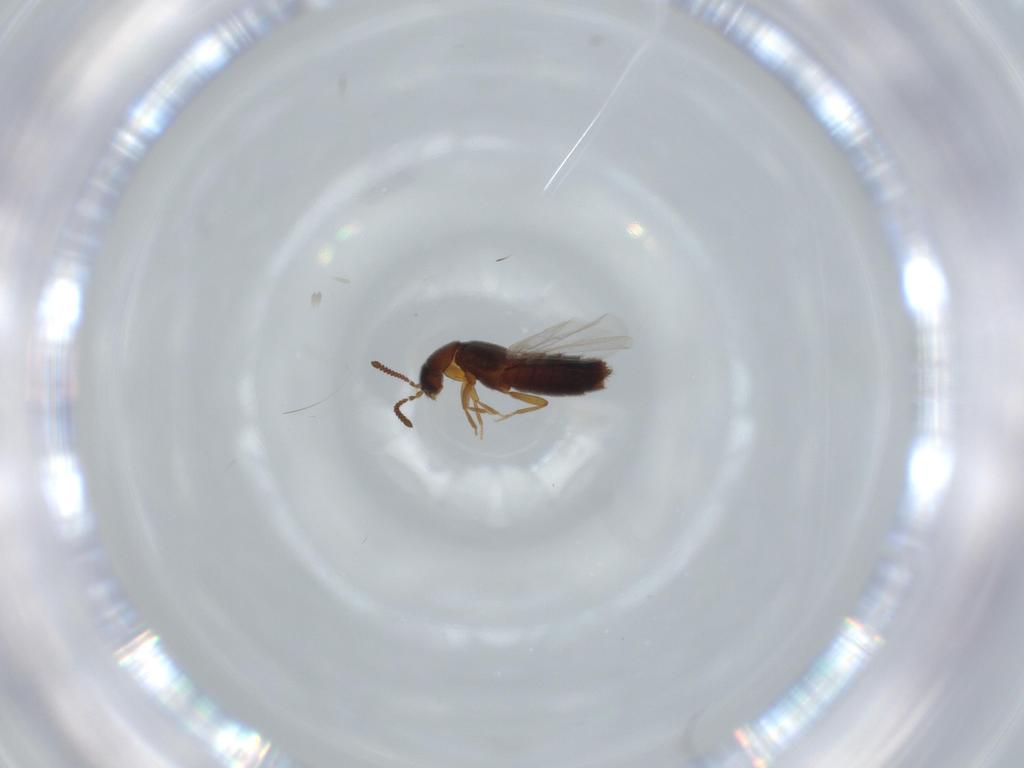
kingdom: Animalia
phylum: Arthropoda
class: Insecta
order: Coleoptera
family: Staphylinidae
